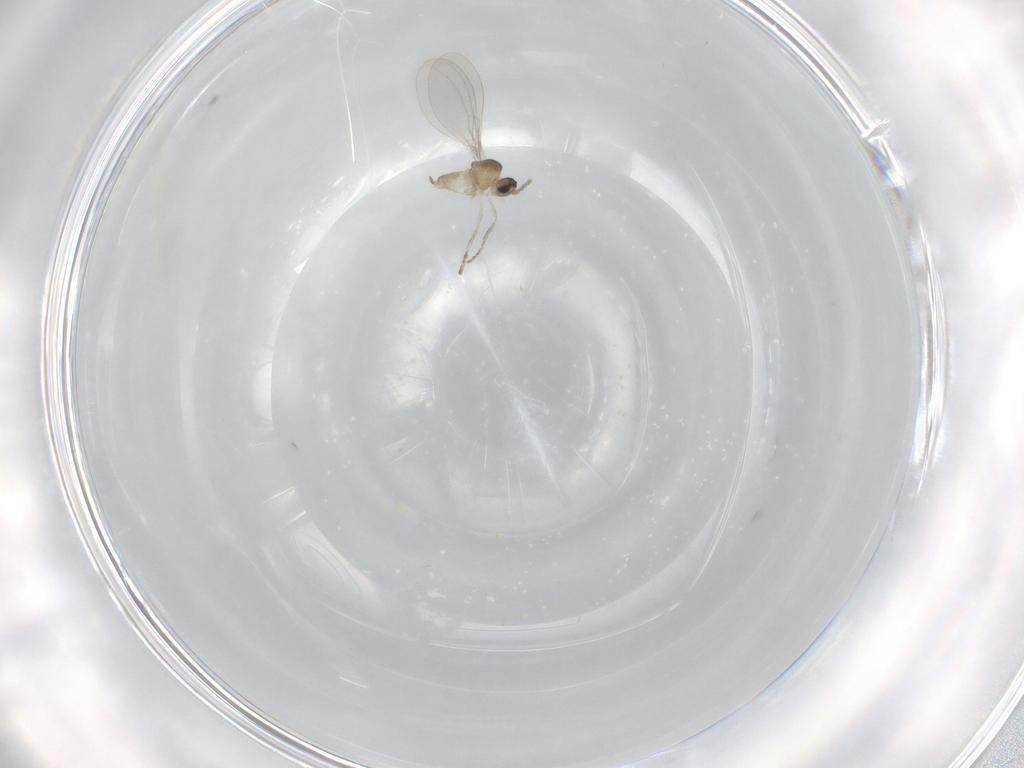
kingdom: Animalia
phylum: Arthropoda
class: Insecta
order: Diptera
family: Cecidomyiidae
